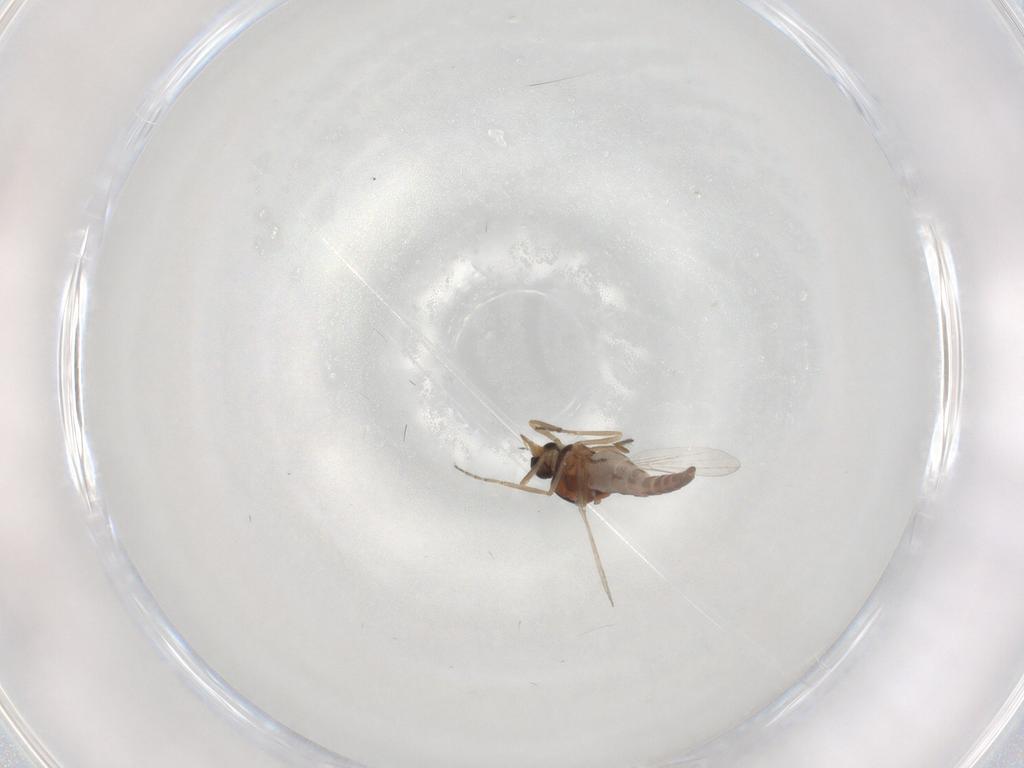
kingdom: Animalia
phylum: Arthropoda
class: Insecta
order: Diptera
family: Ceratopogonidae
